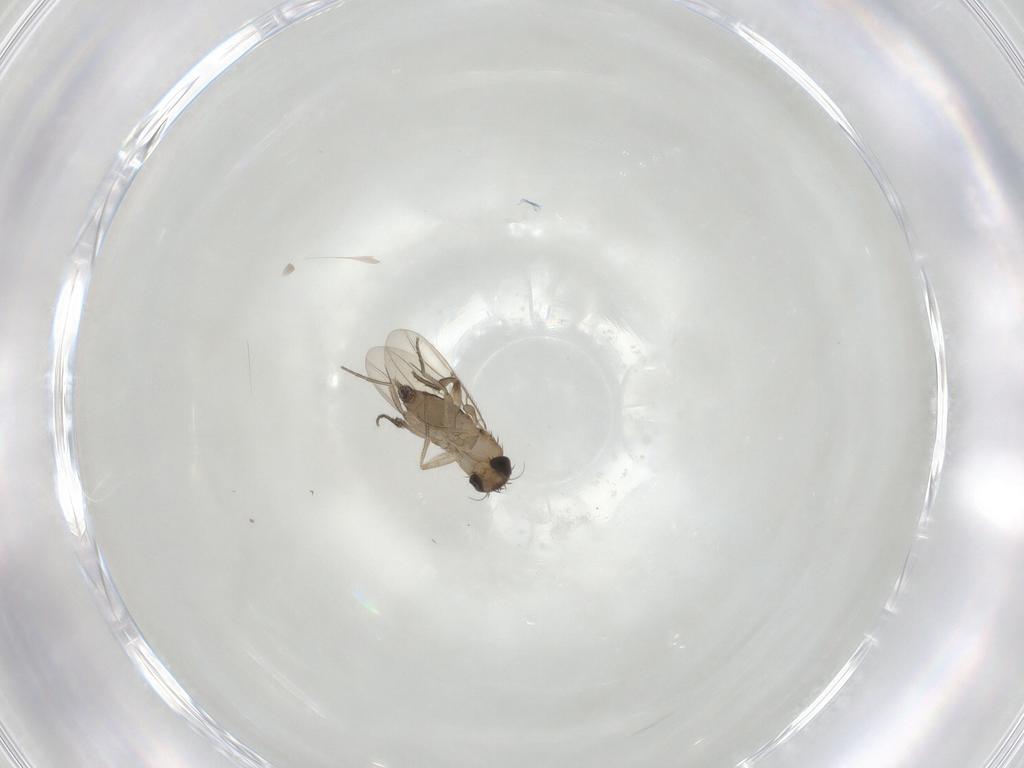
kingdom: Animalia
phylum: Arthropoda
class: Insecta
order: Diptera
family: Phoridae
